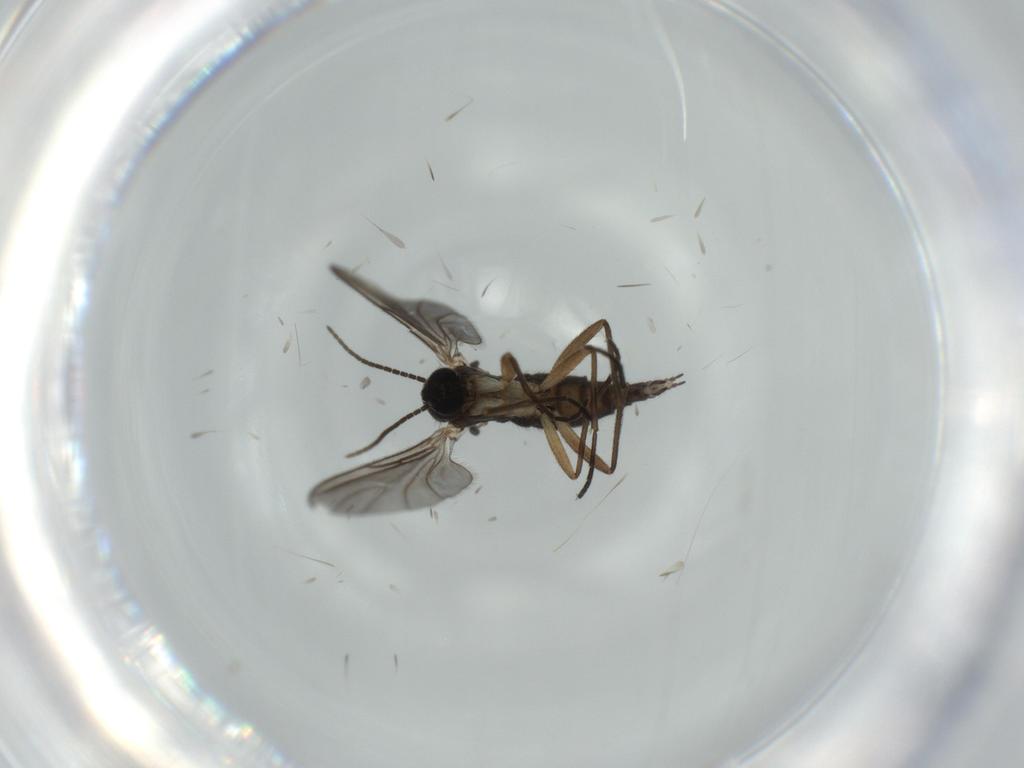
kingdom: Animalia
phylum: Arthropoda
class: Insecta
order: Diptera
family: Sciaridae
